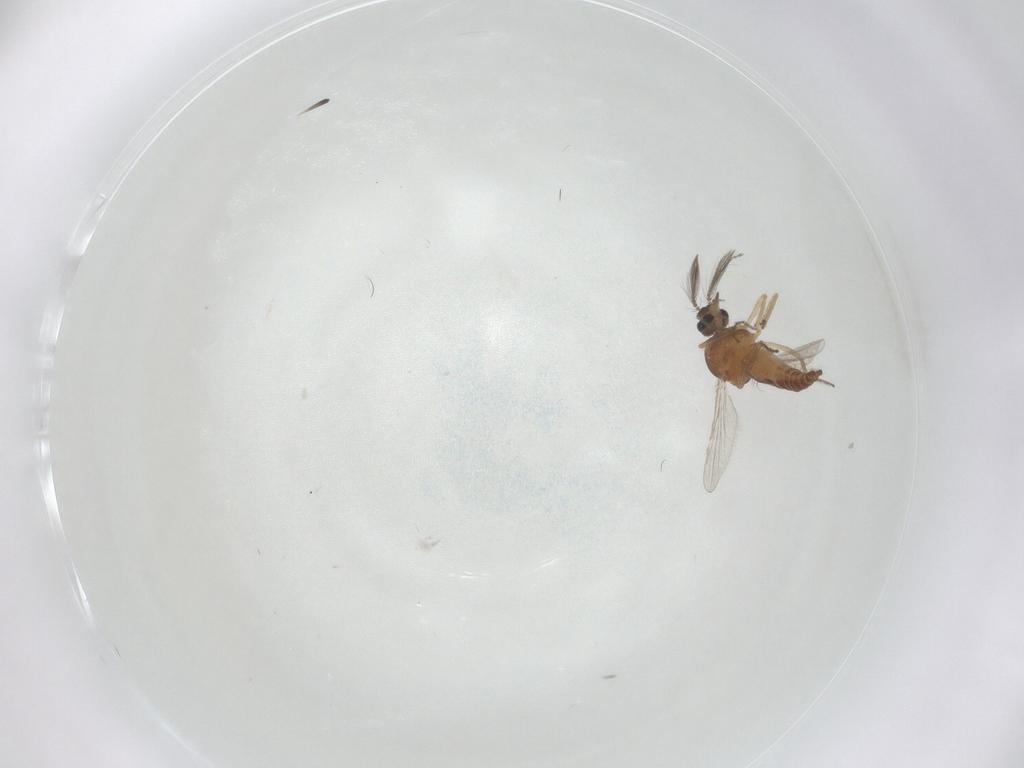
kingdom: Animalia
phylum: Arthropoda
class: Insecta
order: Diptera
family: Ceratopogonidae
